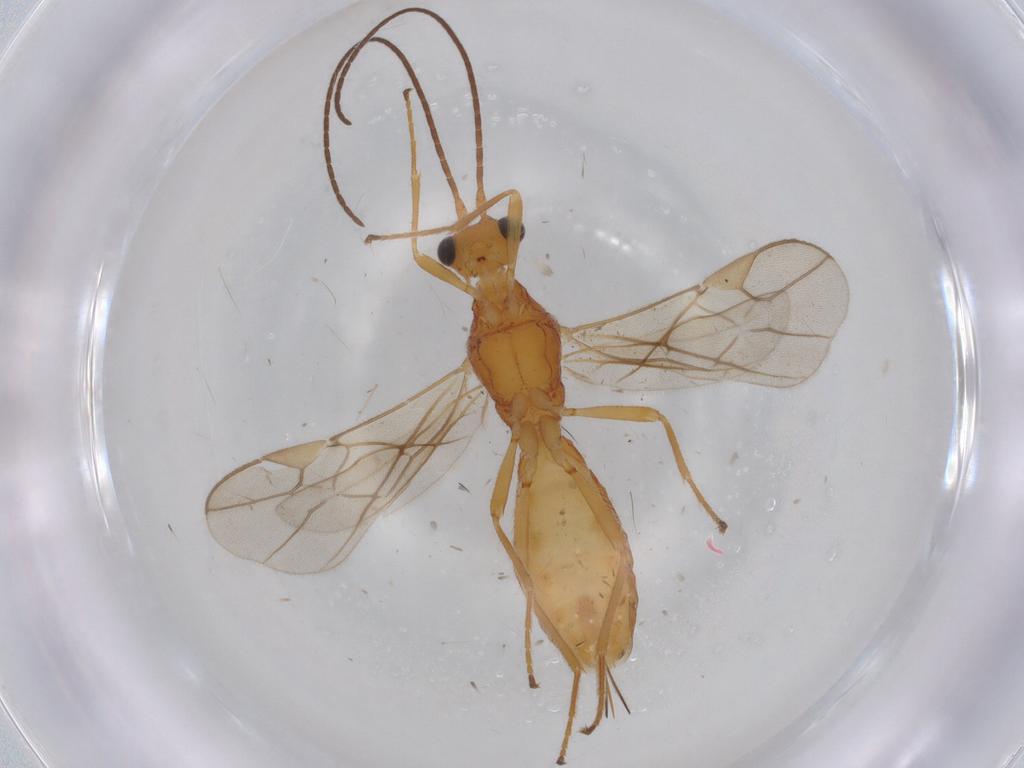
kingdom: Animalia
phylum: Arthropoda
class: Insecta
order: Hymenoptera
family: Braconidae
